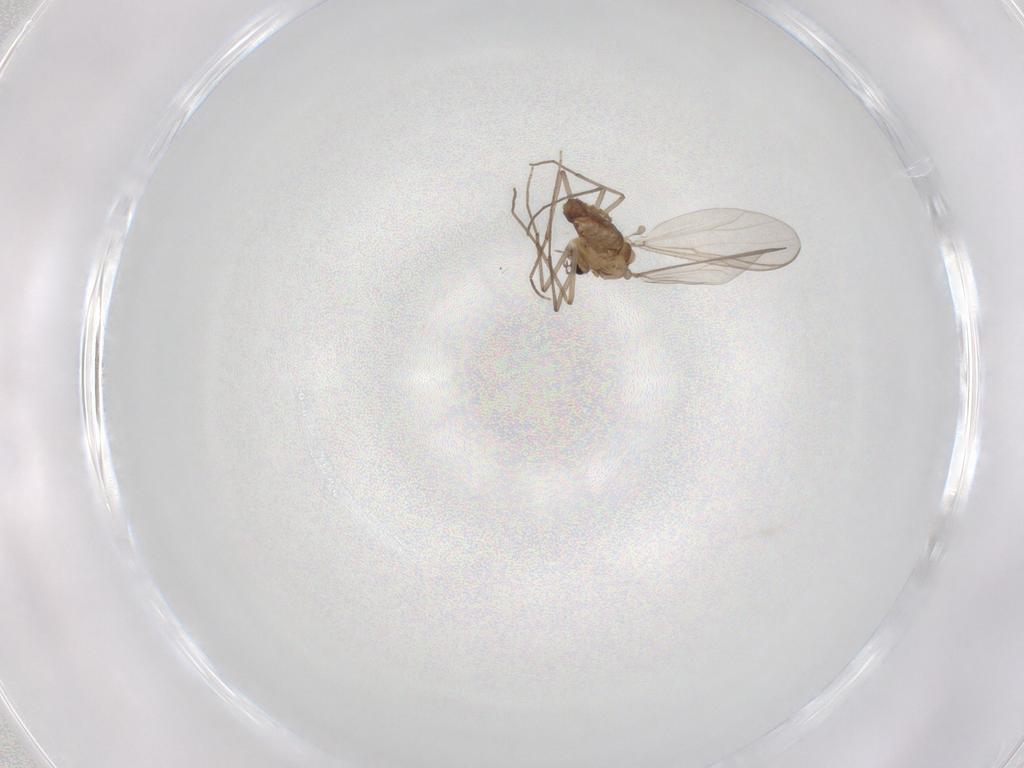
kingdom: Animalia
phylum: Arthropoda
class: Insecta
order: Diptera
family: Chironomidae
